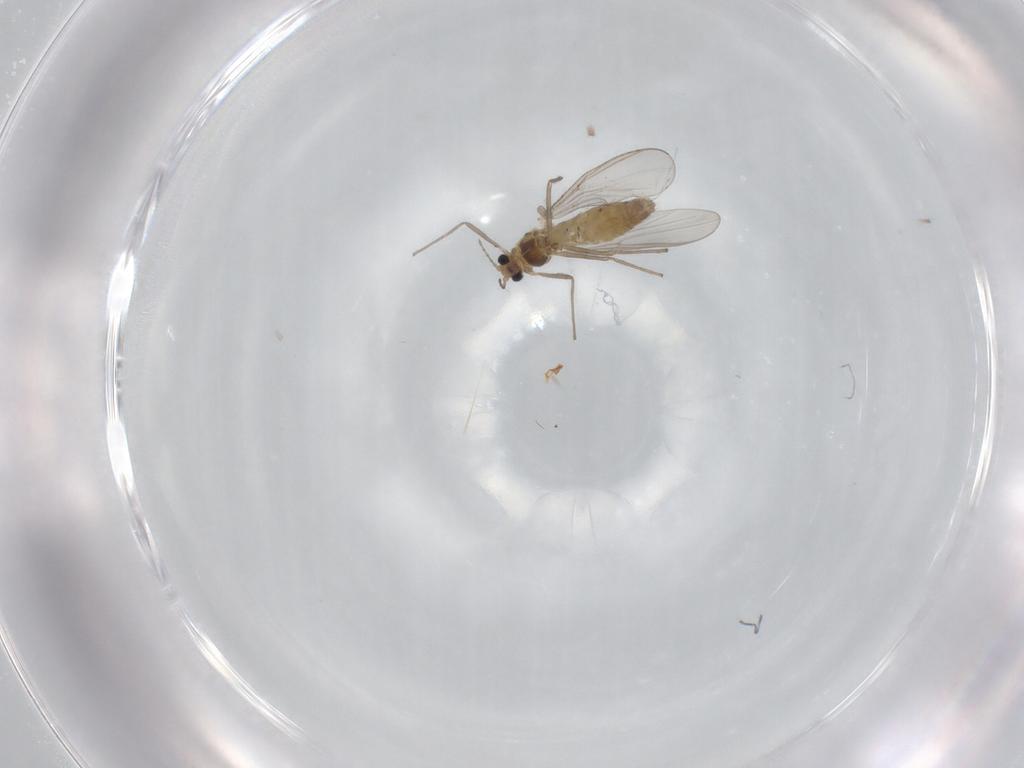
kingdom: Animalia
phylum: Arthropoda
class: Insecta
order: Diptera
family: Chironomidae
